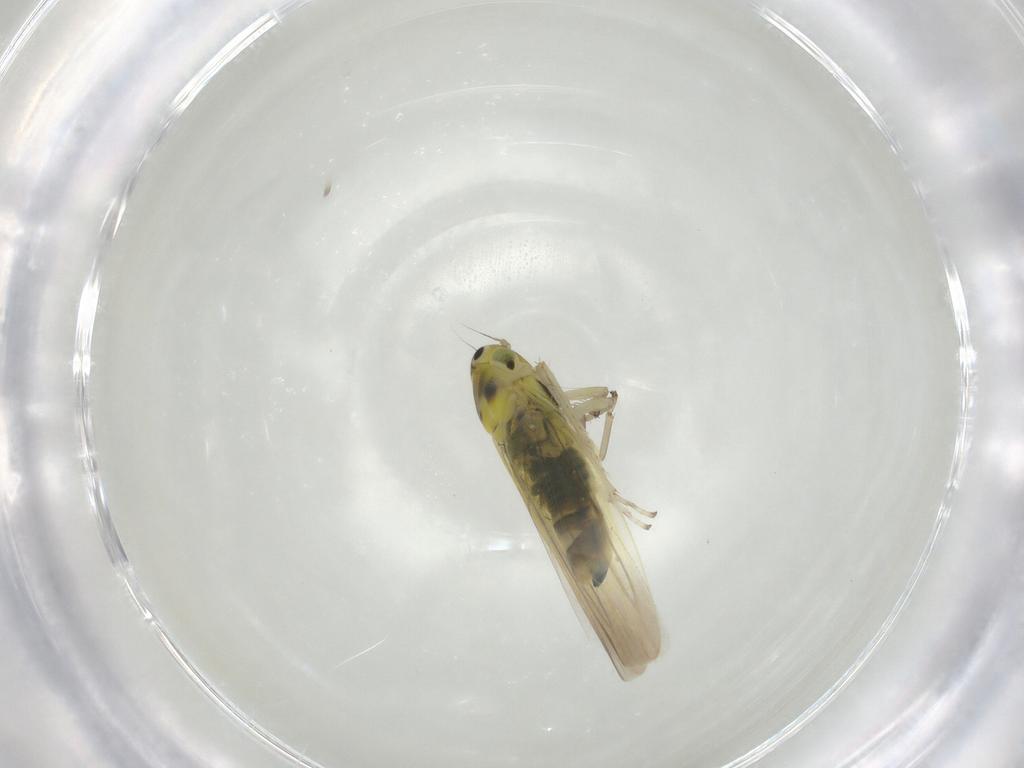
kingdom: Animalia
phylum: Arthropoda
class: Insecta
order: Hemiptera
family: Cicadellidae
